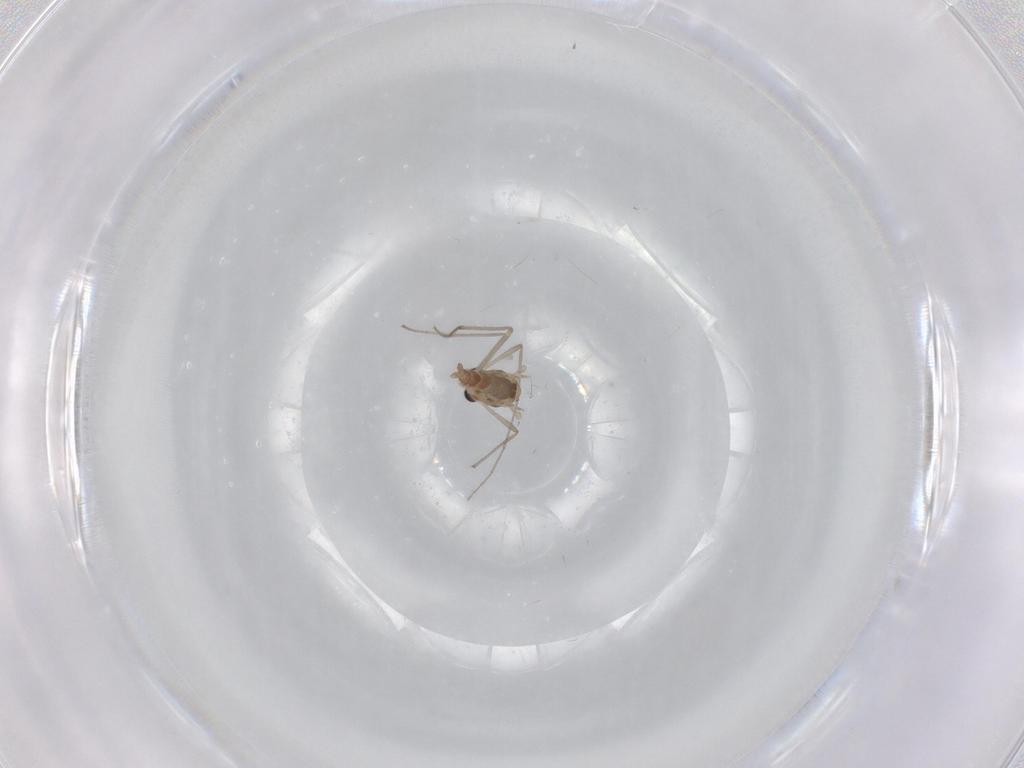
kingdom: Animalia
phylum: Arthropoda
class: Insecta
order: Diptera
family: Chironomidae
